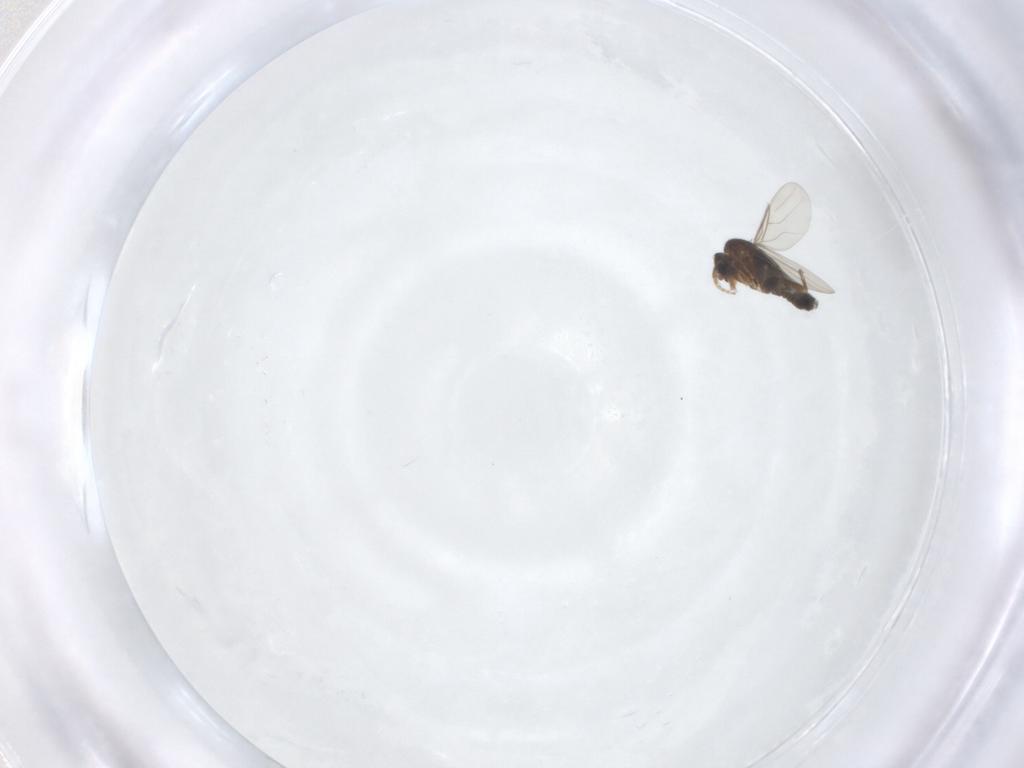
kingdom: Animalia
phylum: Arthropoda
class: Insecta
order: Diptera
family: Phoridae
